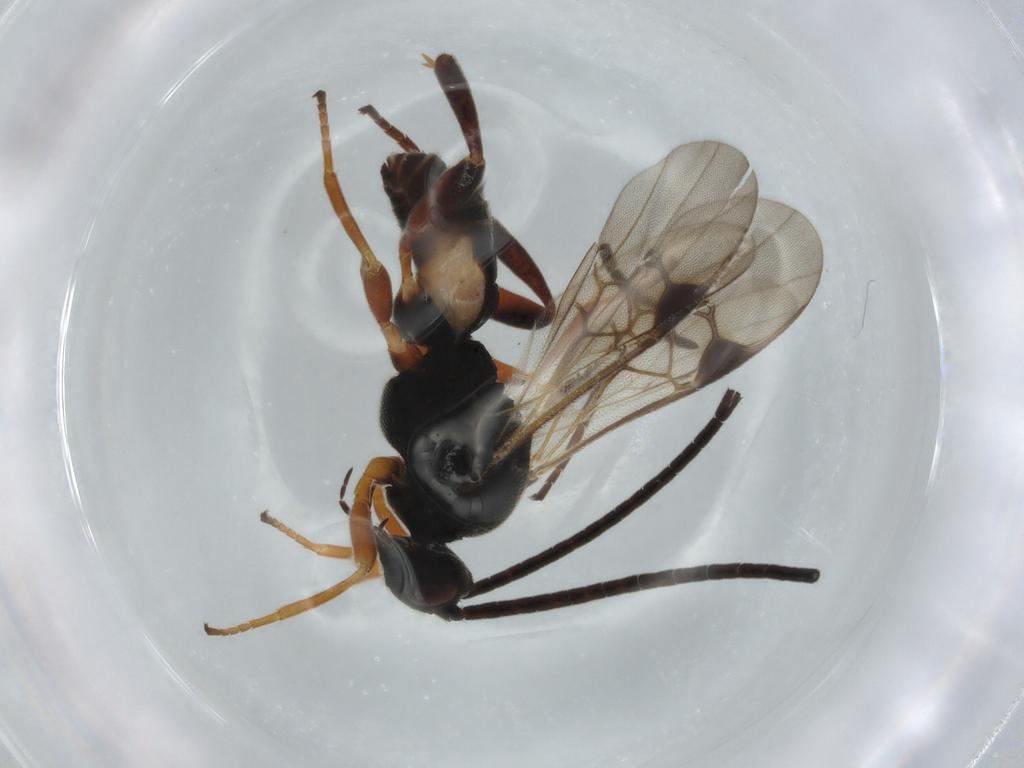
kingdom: Animalia
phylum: Arthropoda
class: Insecta
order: Hymenoptera
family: Braconidae
